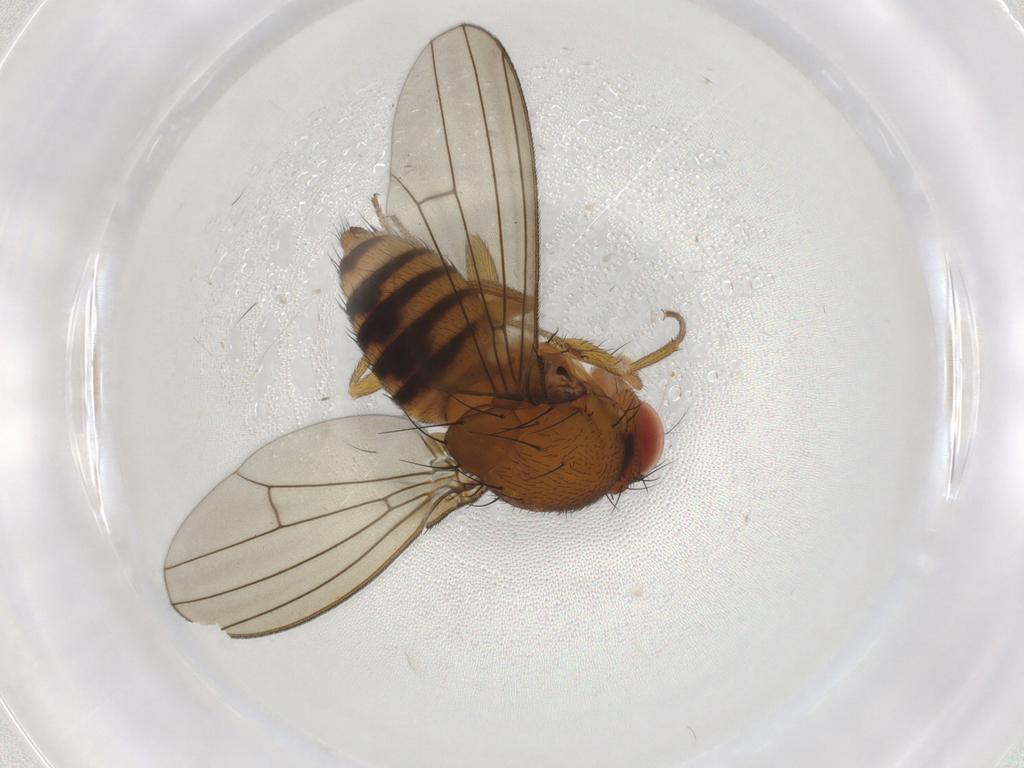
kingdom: Animalia
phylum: Arthropoda
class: Insecta
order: Diptera
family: Drosophilidae
